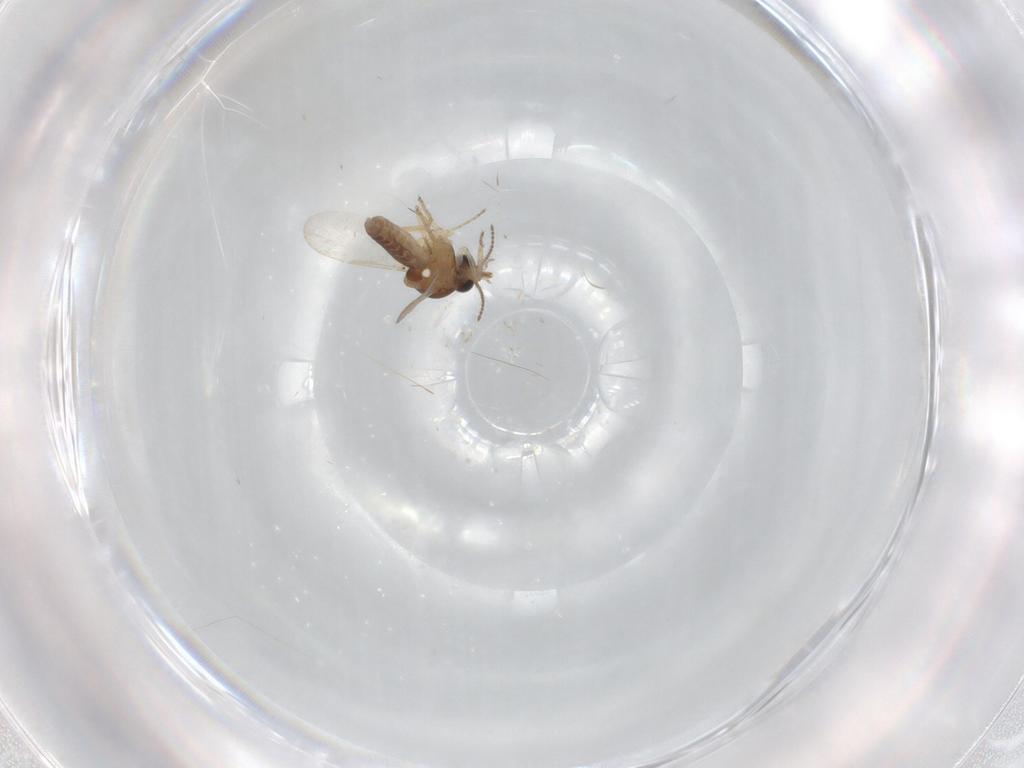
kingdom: Animalia
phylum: Arthropoda
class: Insecta
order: Diptera
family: Ceratopogonidae
